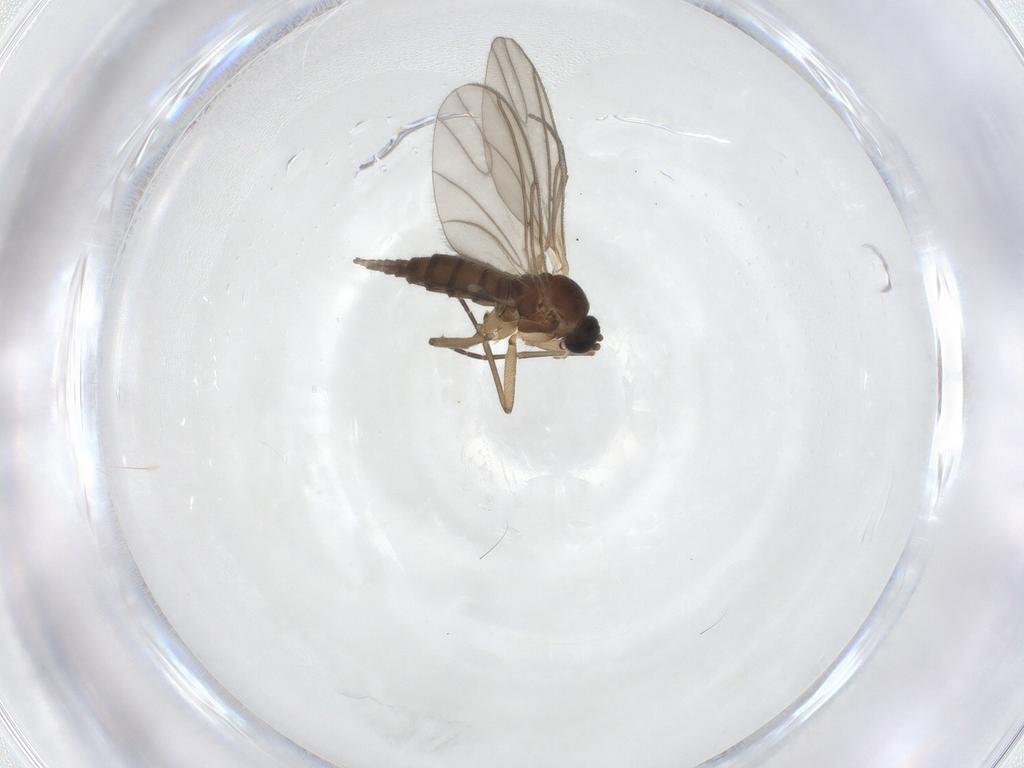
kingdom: Animalia
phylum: Arthropoda
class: Insecta
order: Diptera
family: Sciaridae
